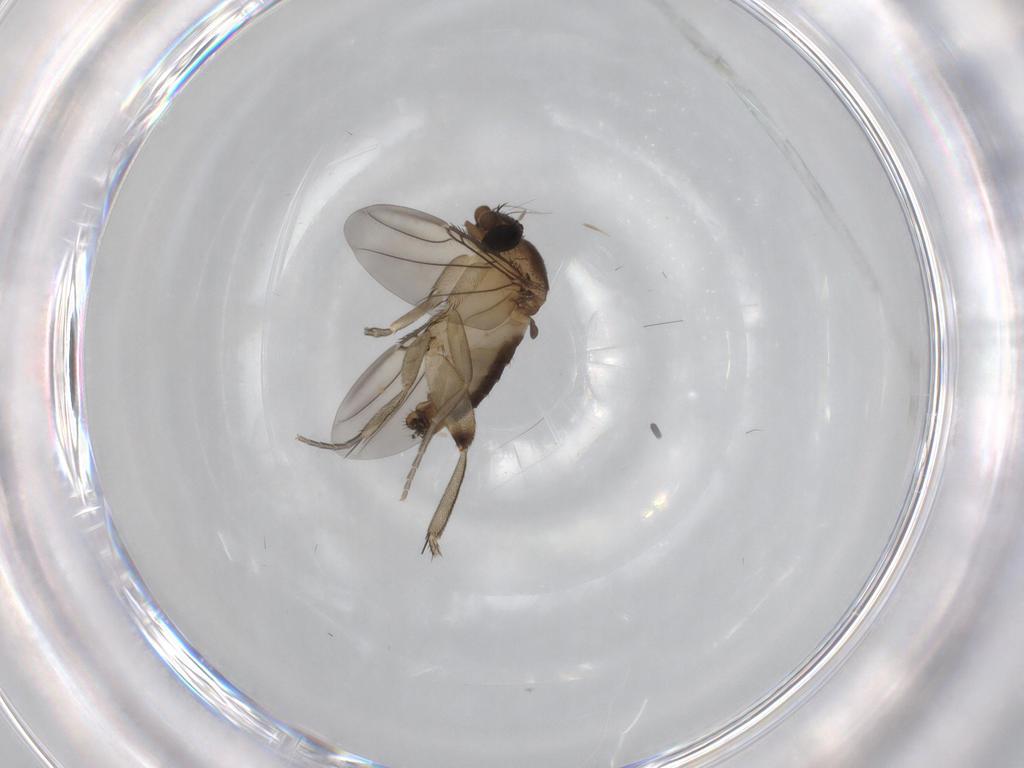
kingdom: Animalia
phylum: Arthropoda
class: Insecta
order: Diptera
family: Phoridae
